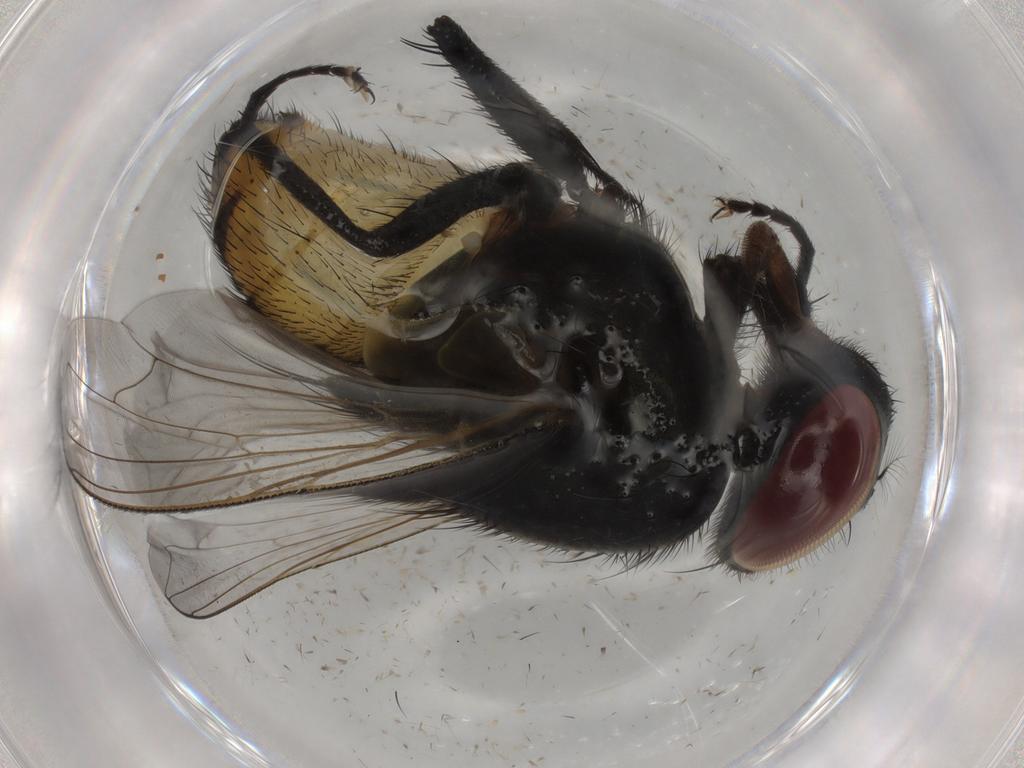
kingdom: Animalia
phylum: Arthropoda
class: Insecta
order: Diptera
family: Muscidae
